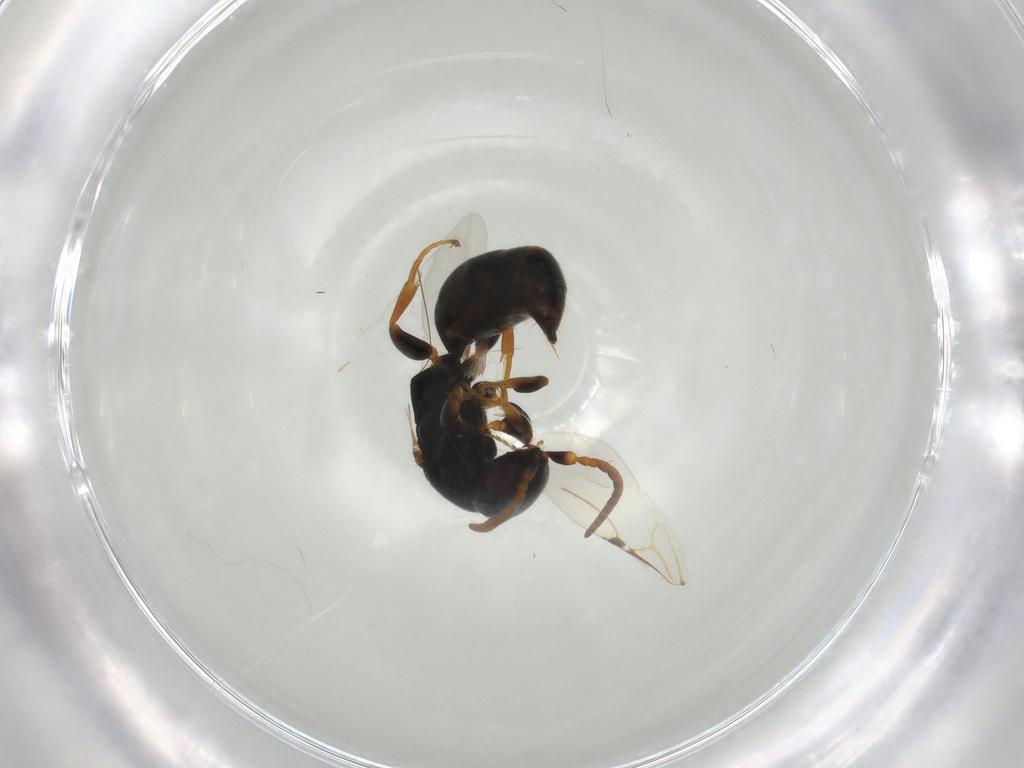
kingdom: Animalia
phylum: Arthropoda
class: Insecta
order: Hymenoptera
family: Bethylidae
